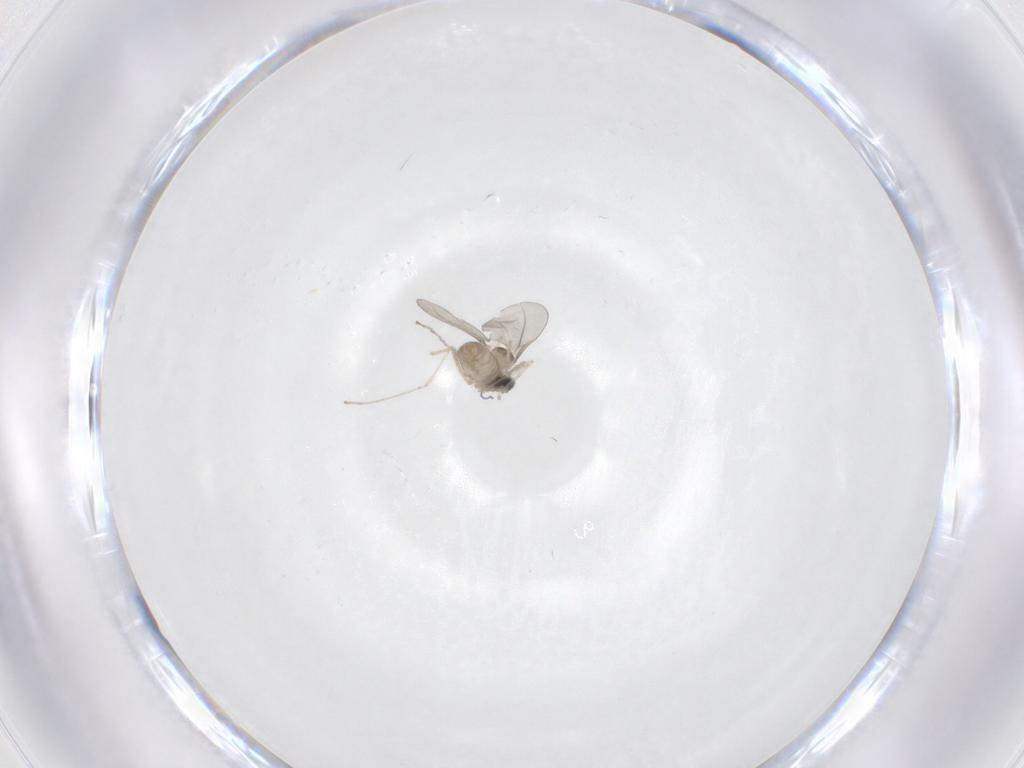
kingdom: Animalia
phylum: Arthropoda
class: Insecta
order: Diptera
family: Cecidomyiidae
